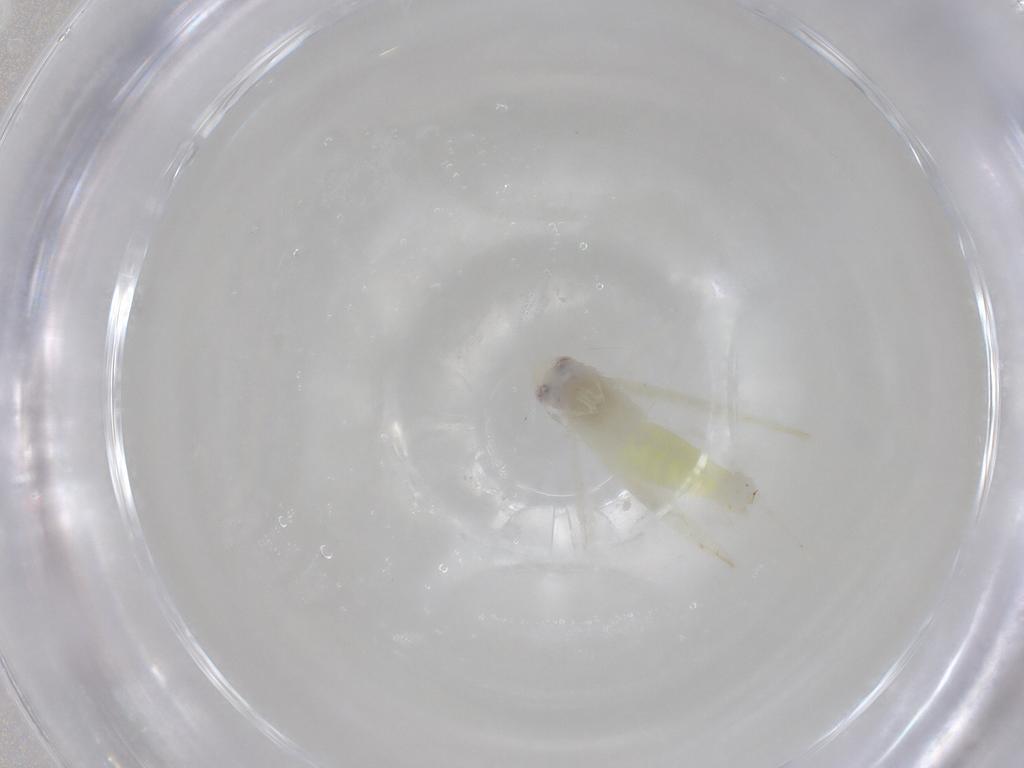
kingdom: Animalia
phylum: Arthropoda
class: Insecta
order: Hemiptera
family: Cicadellidae
